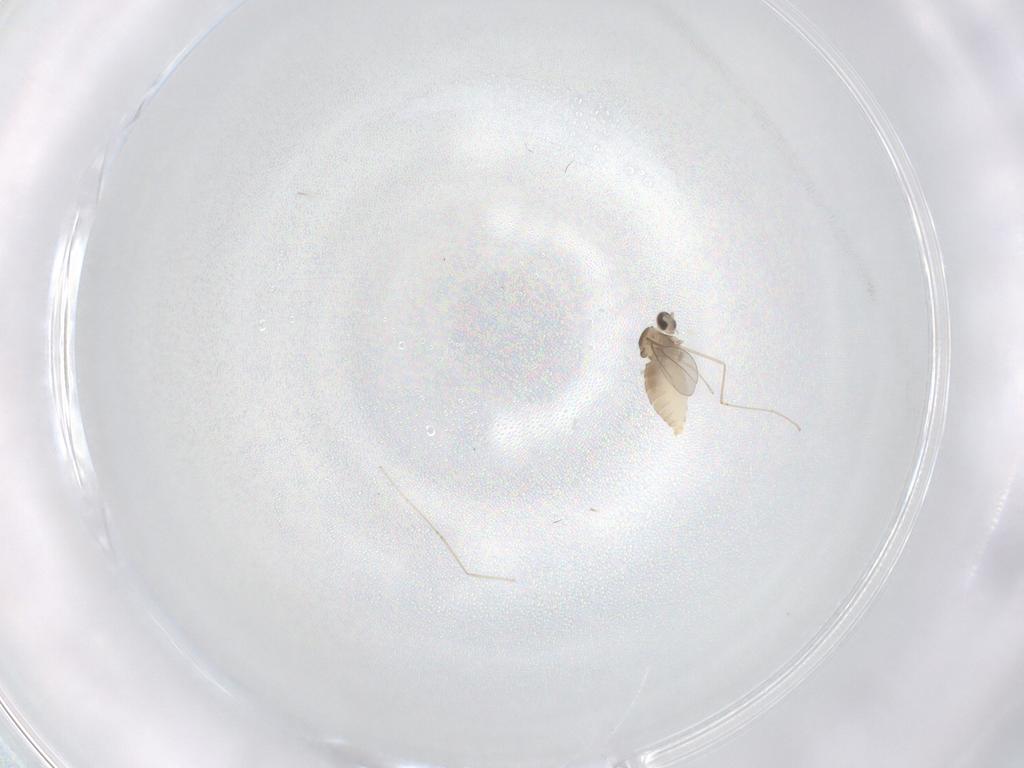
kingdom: Animalia
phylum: Arthropoda
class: Insecta
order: Diptera
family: Cecidomyiidae
